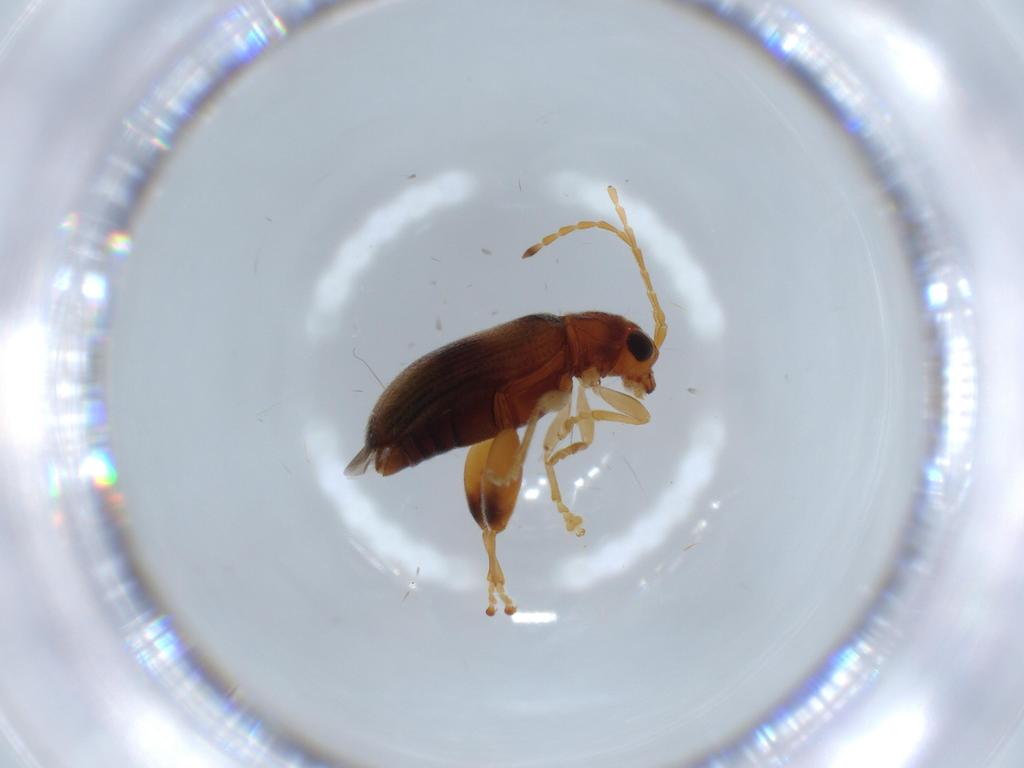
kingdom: Animalia
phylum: Arthropoda
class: Insecta
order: Coleoptera
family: Chrysomelidae
